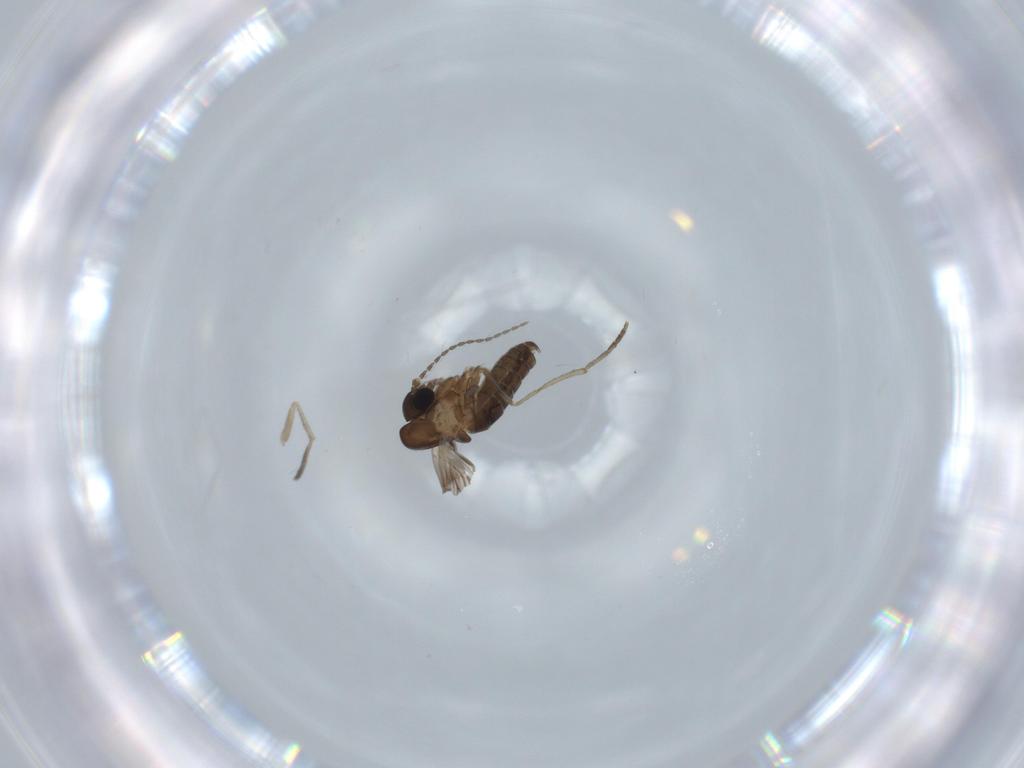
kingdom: Animalia
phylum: Arthropoda
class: Insecta
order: Diptera
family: Psychodidae
